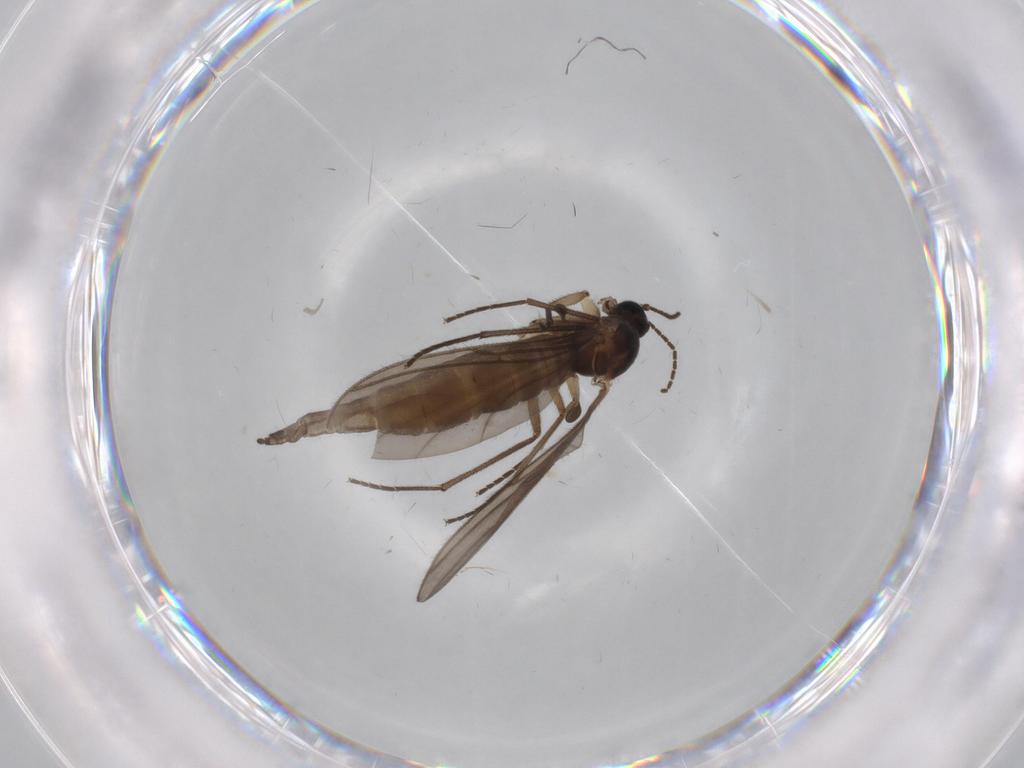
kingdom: Animalia
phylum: Arthropoda
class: Insecta
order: Diptera
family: Sciaridae
